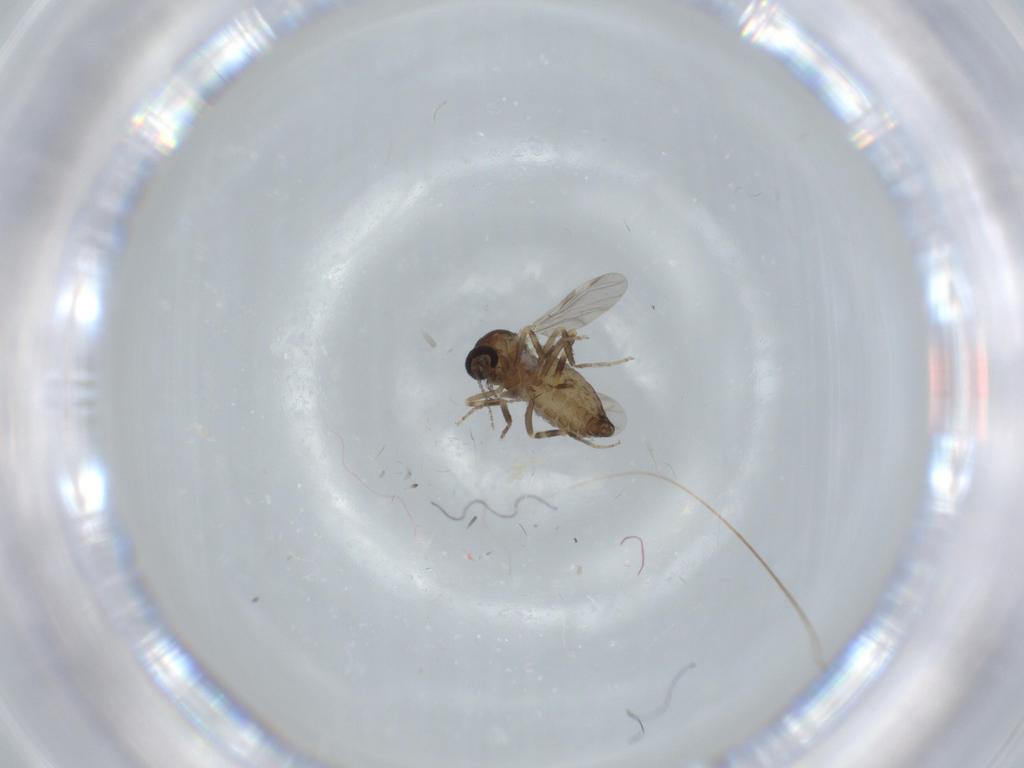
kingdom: Animalia
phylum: Arthropoda
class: Insecta
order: Diptera
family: Ceratopogonidae
